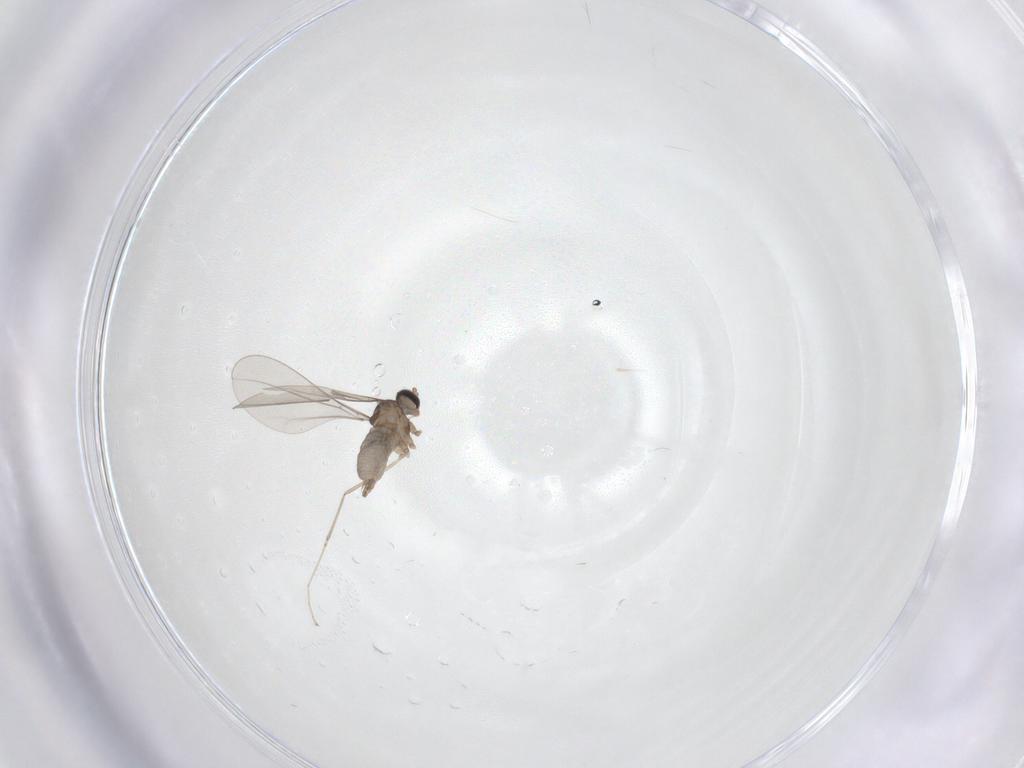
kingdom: Animalia
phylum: Arthropoda
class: Insecta
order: Diptera
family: Cecidomyiidae
